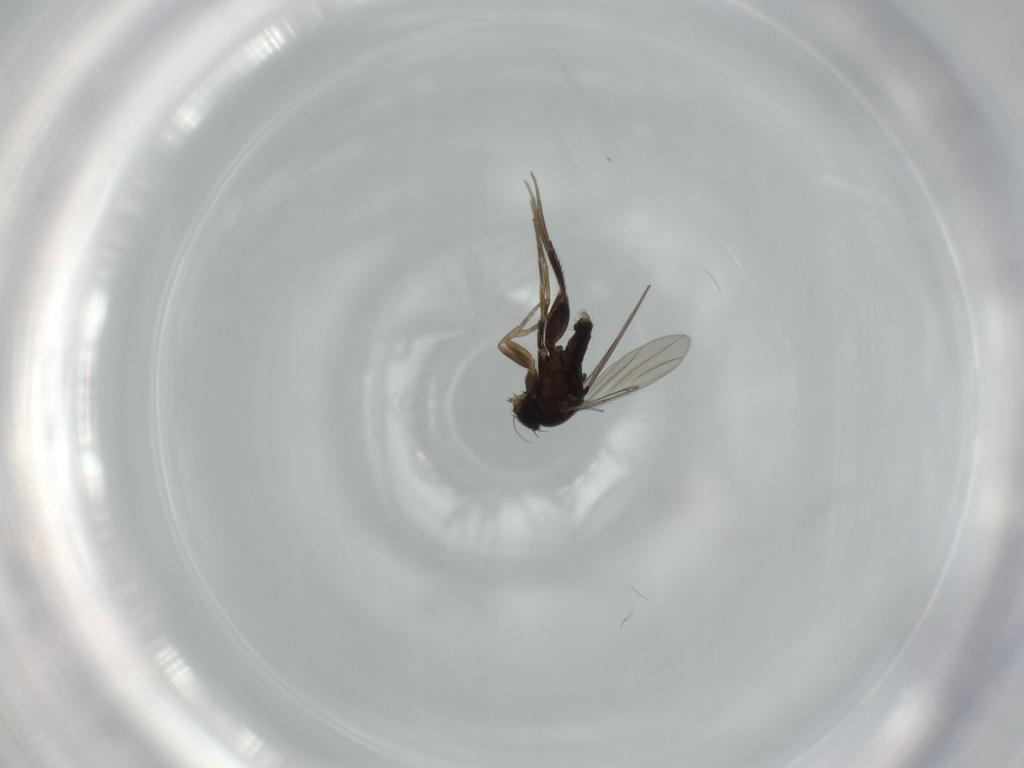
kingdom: Animalia
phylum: Arthropoda
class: Insecta
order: Diptera
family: Phoridae
